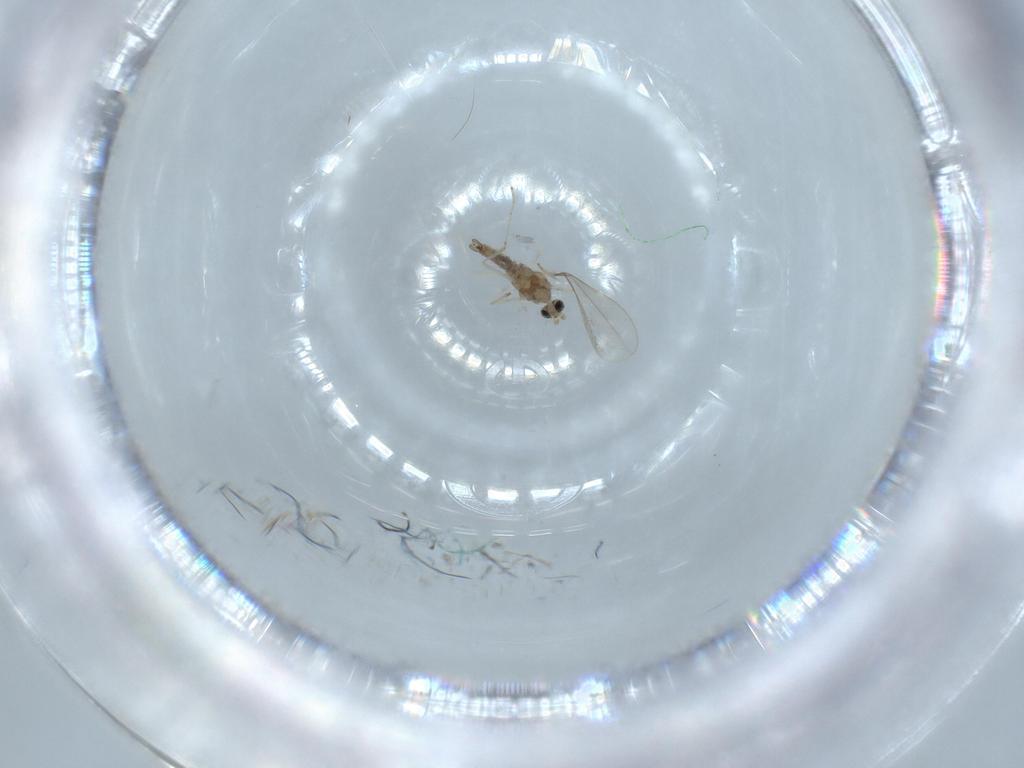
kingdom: Animalia
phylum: Arthropoda
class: Insecta
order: Diptera
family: Cecidomyiidae
